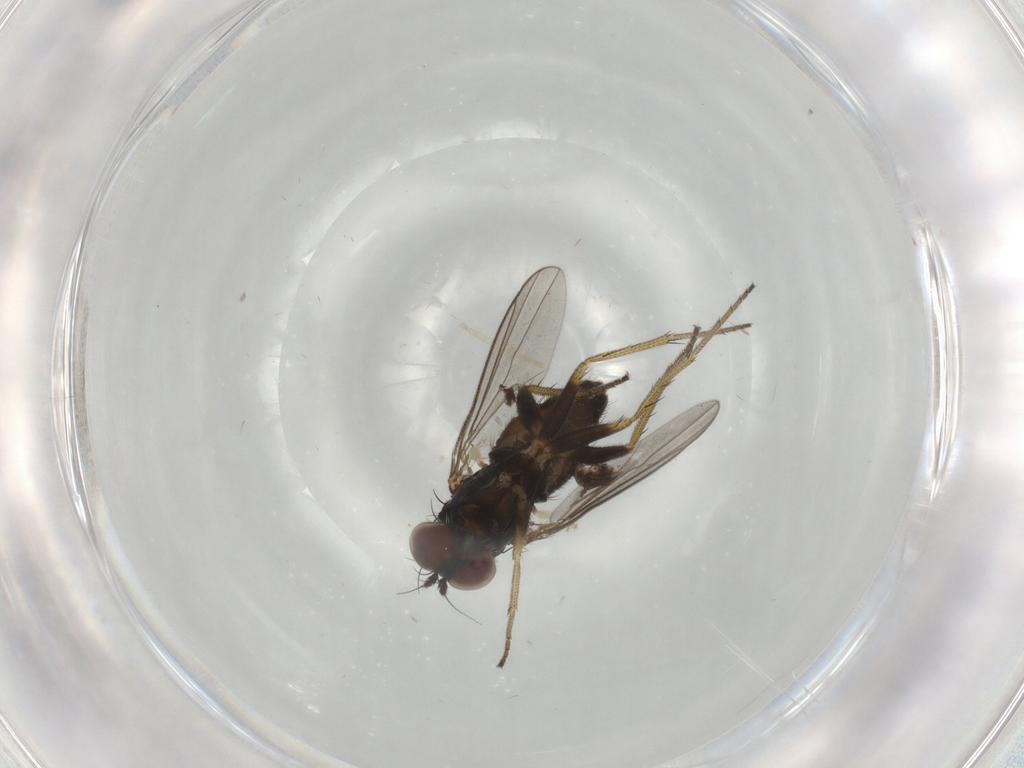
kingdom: Animalia
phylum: Arthropoda
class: Insecta
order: Diptera
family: Dolichopodidae
